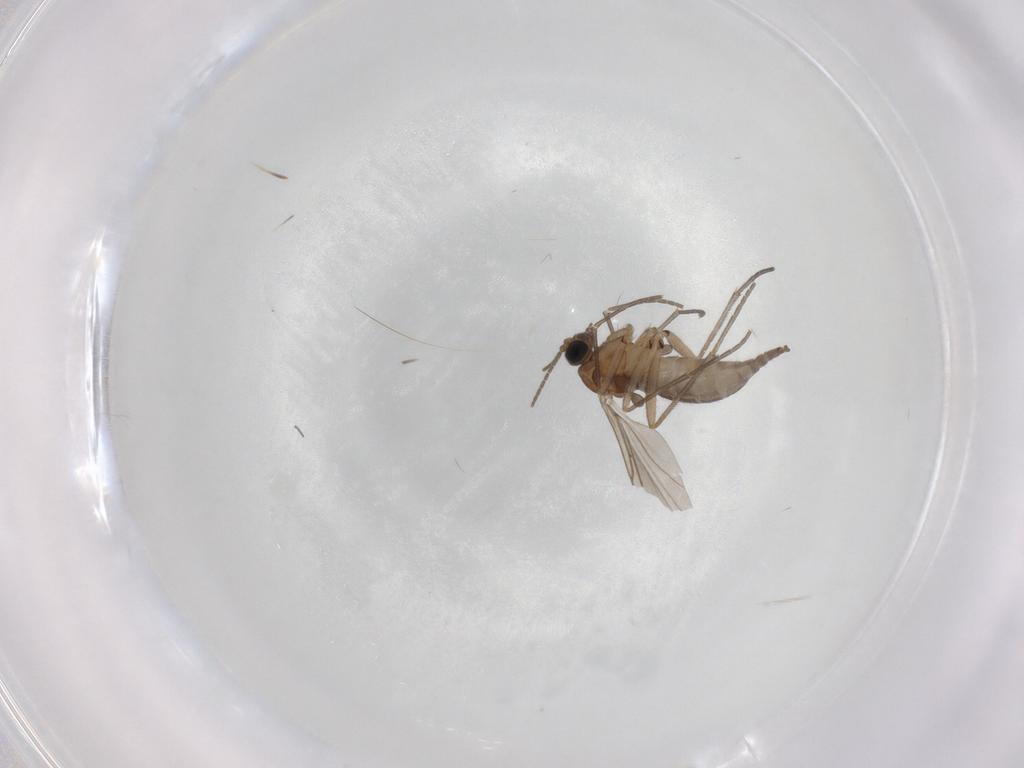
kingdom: Animalia
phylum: Arthropoda
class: Insecta
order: Diptera
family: Sciaridae
